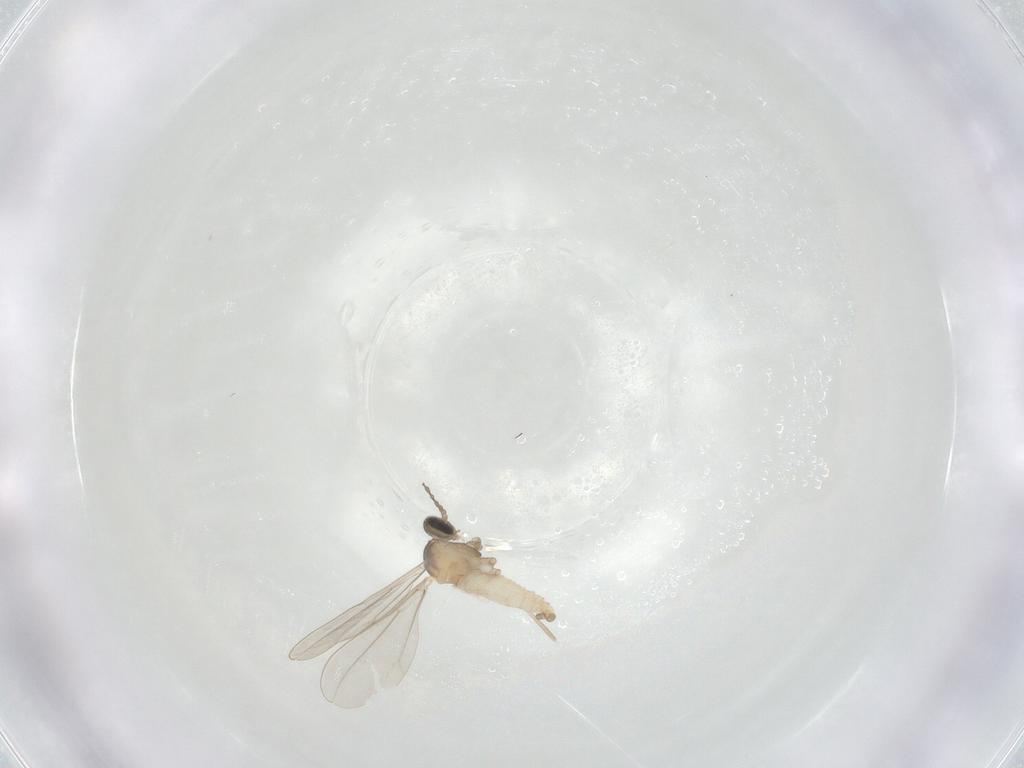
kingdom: Animalia
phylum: Arthropoda
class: Insecta
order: Diptera
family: Cecidomyiidae
